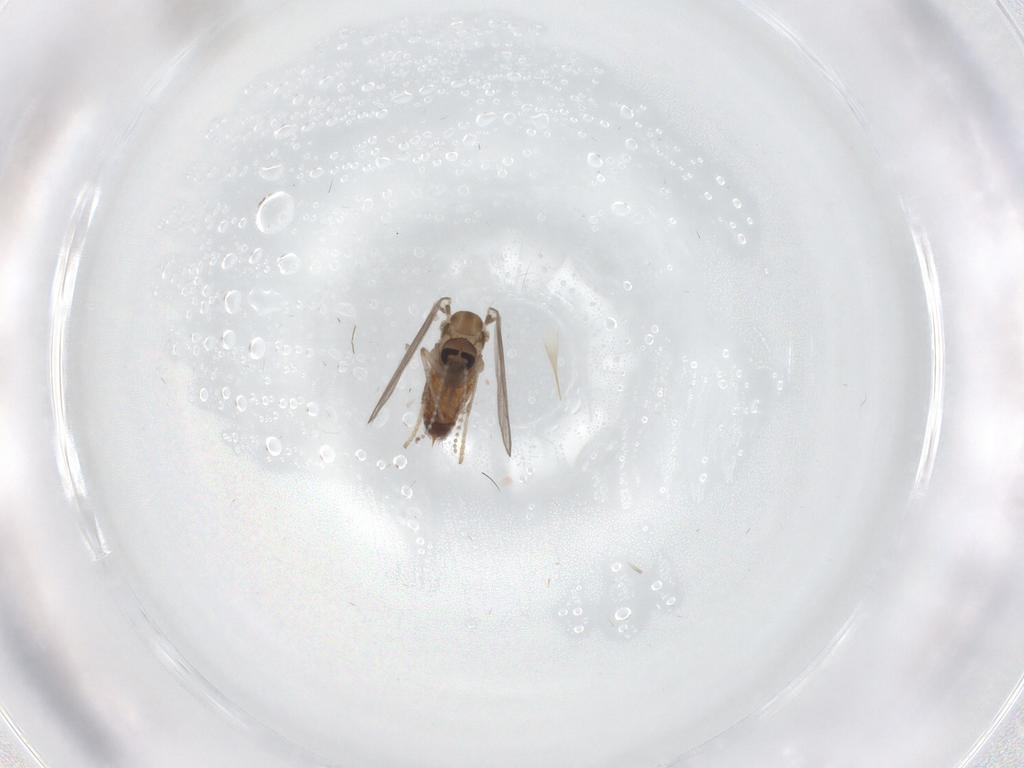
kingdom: Animalia
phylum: Arthropoda
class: Insecta
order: Diptera
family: Psychodidae
